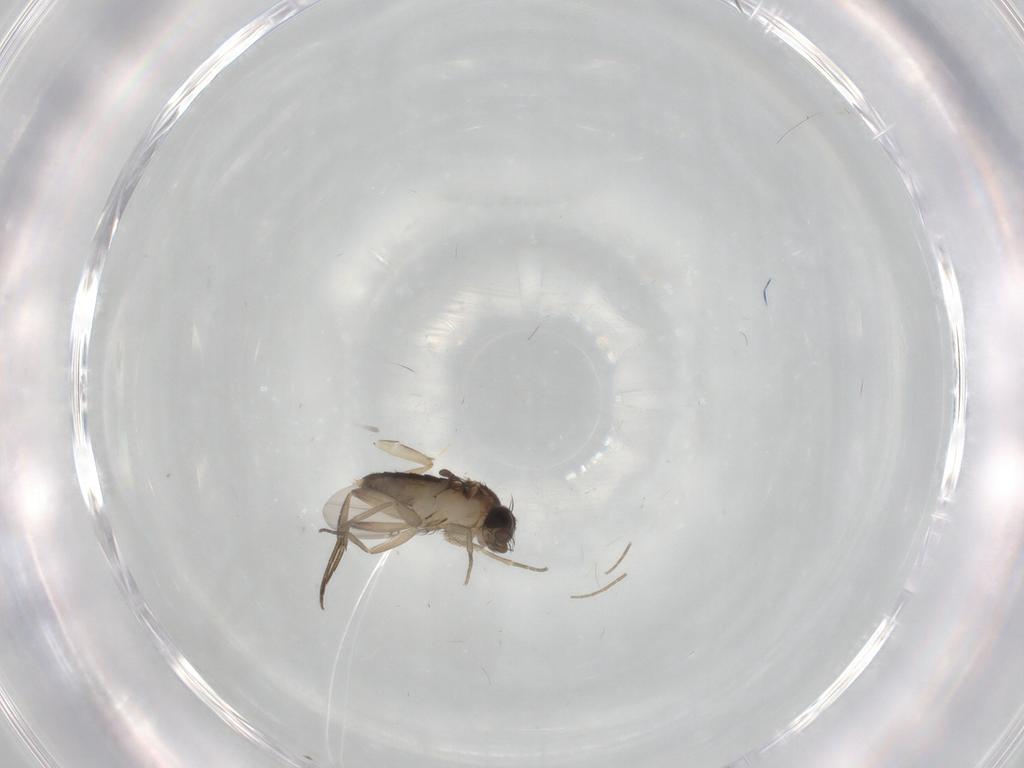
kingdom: Animalia
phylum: Arthropoda
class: Insecta
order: Diptera
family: Phoridae
